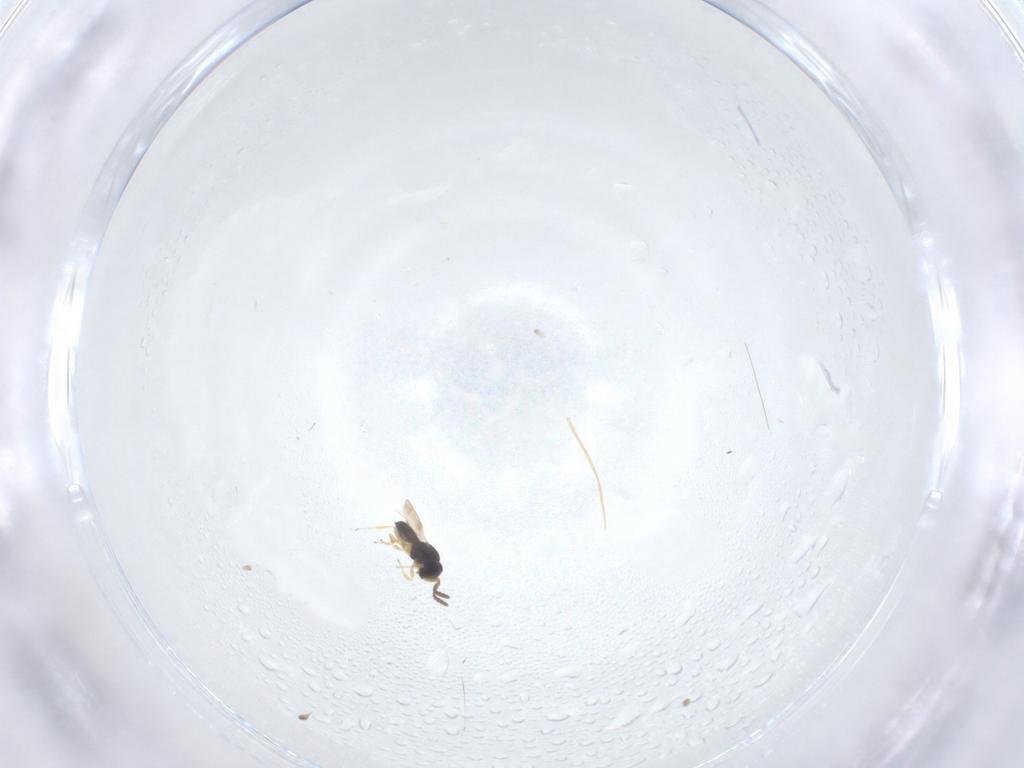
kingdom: Animalia
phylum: Arthropoda
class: Insecta
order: Hymenoptera
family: Scelionidae
